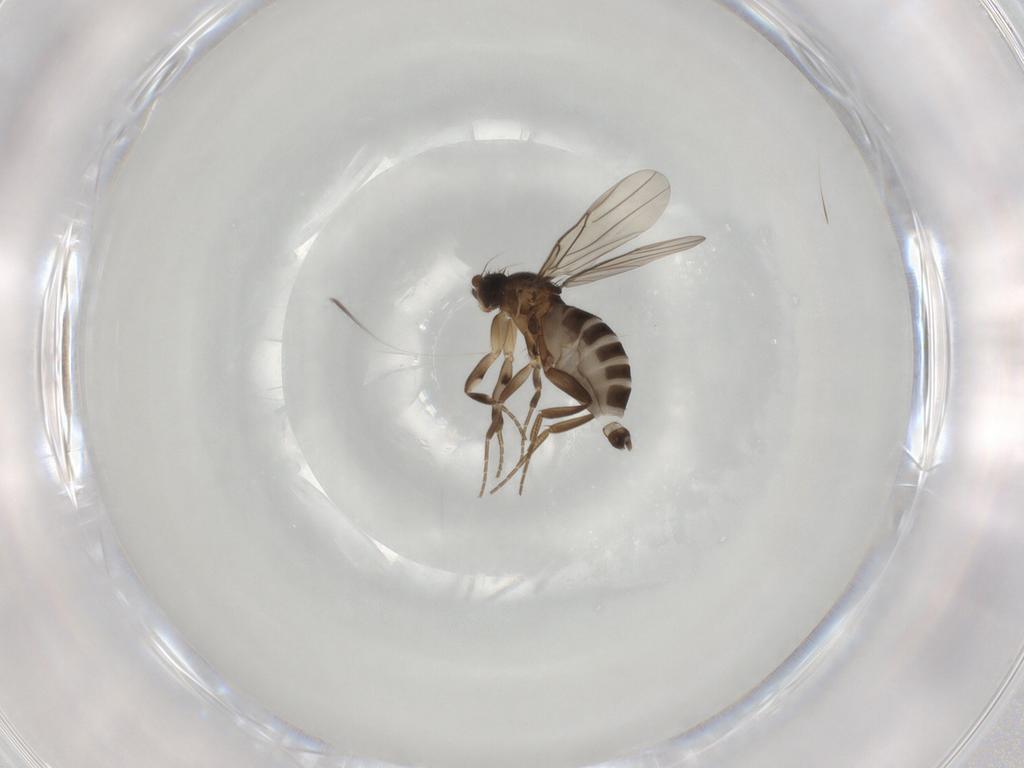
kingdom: Animalia
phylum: Arthropoda
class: Insecta
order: Diptera
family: Phoridae
